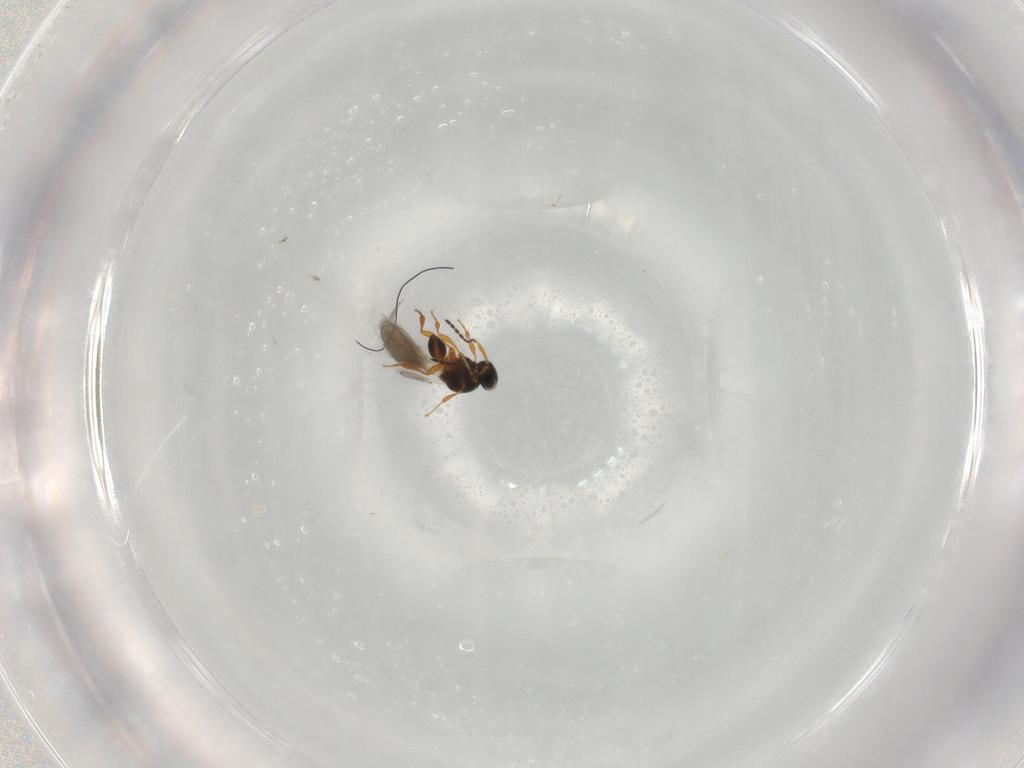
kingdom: Animalia
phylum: Arthropoda
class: Insecta
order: Hymenoptera
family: Platygastridae
